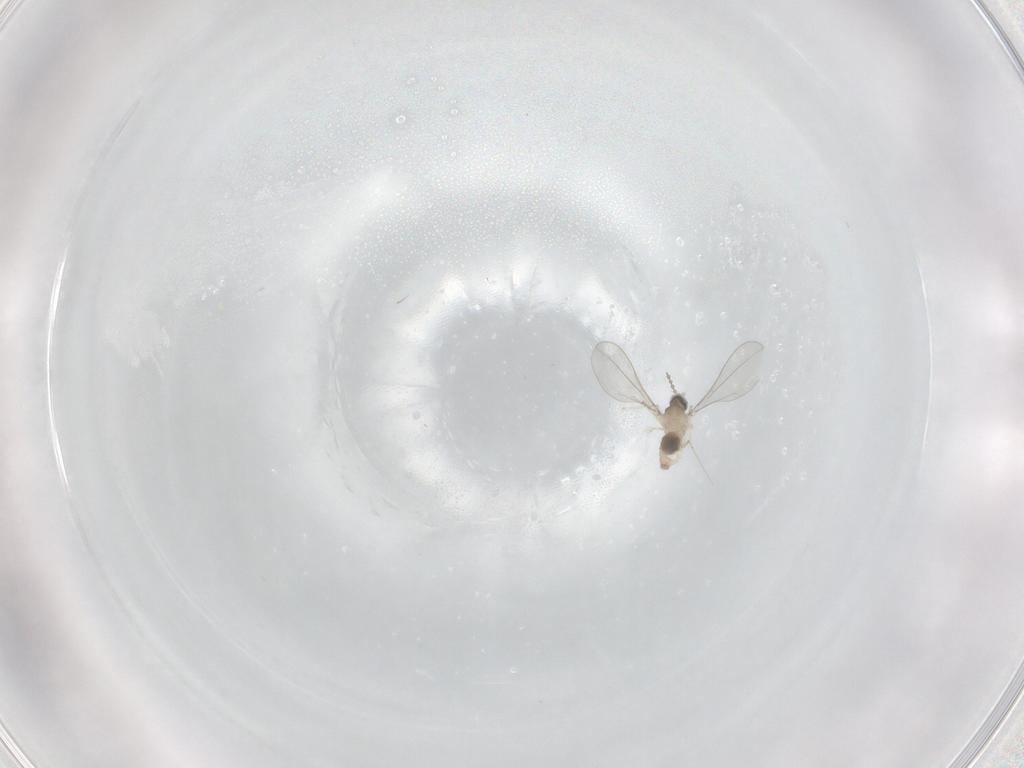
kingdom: Animalia
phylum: Arthropoda
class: Insecta
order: Diptera
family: Cecidomyiidae
